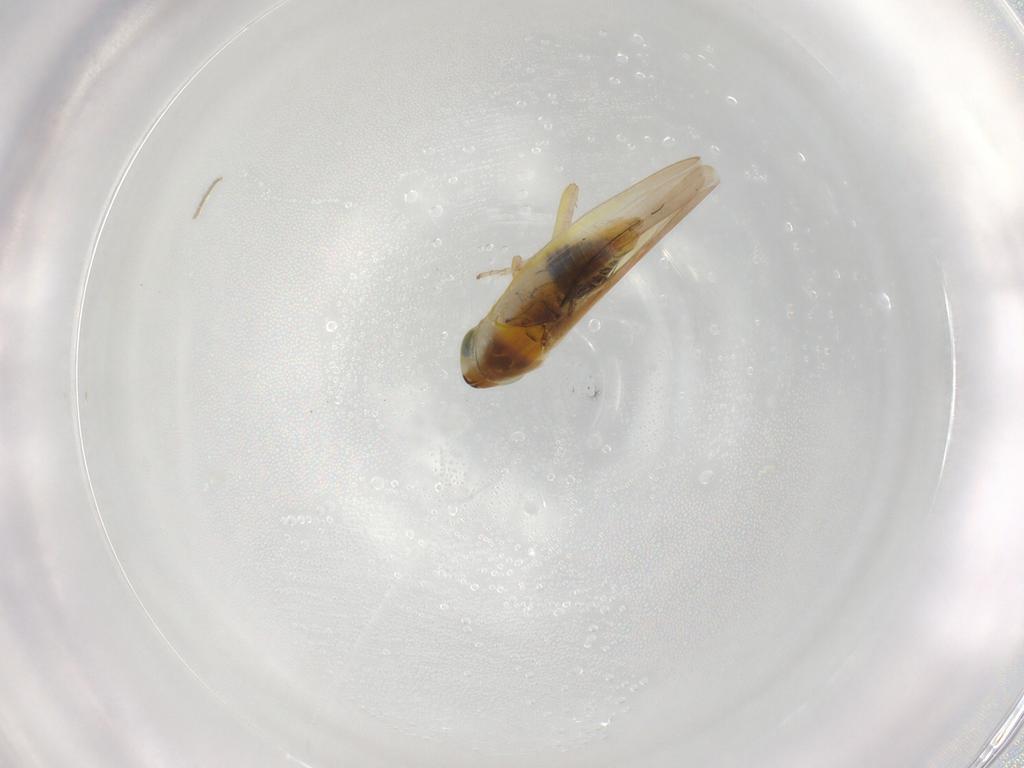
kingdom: Animalia
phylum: Arthropoda
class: Insecta
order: Hemiptera
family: Cicadellidae
